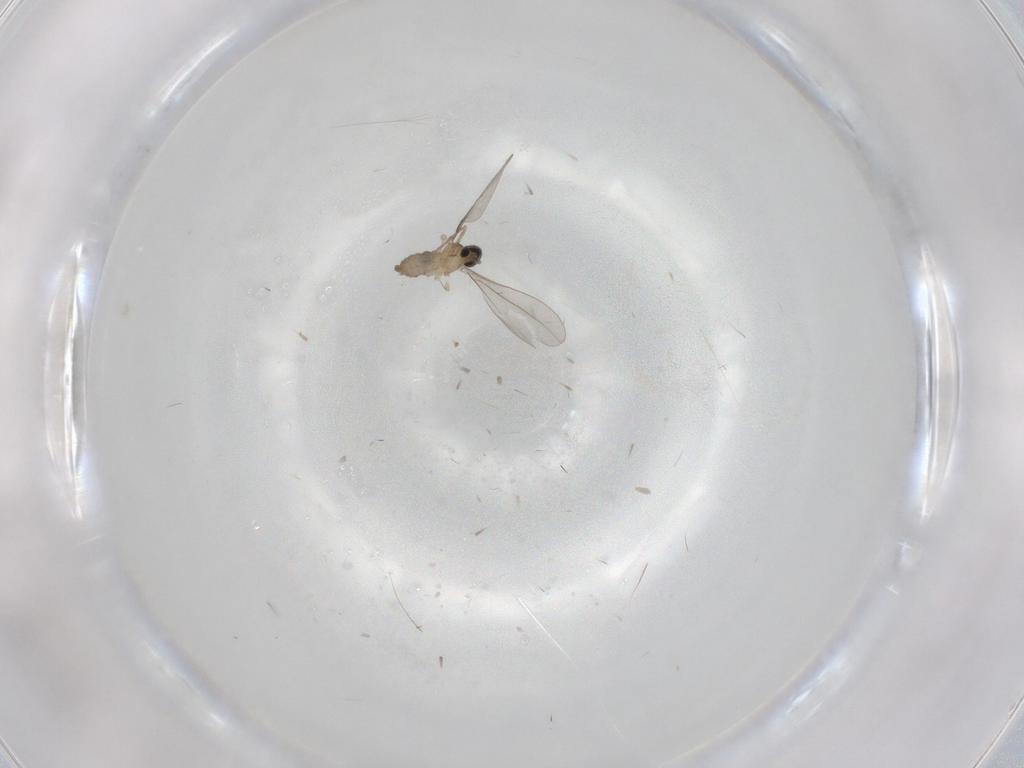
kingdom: Animalia
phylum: Arthropoda
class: Insecta
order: Diptera
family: Cecidomyiidae
